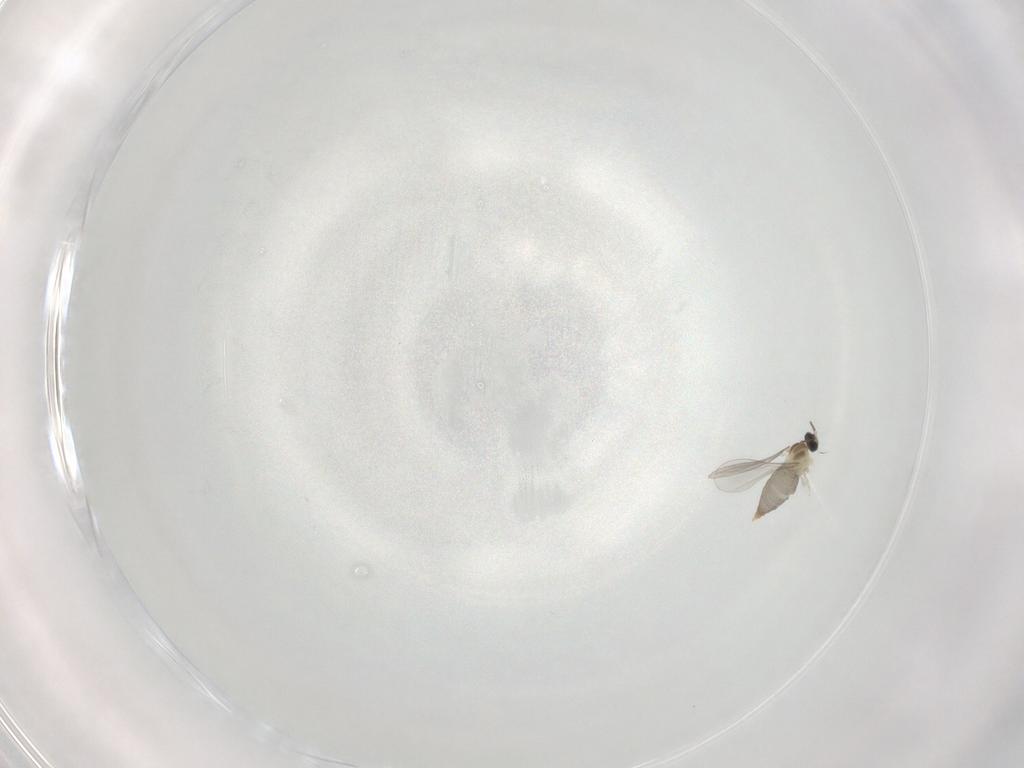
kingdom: Animalia
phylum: Arthropoda
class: Insecta
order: Diptera
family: Cecidomyiidae
